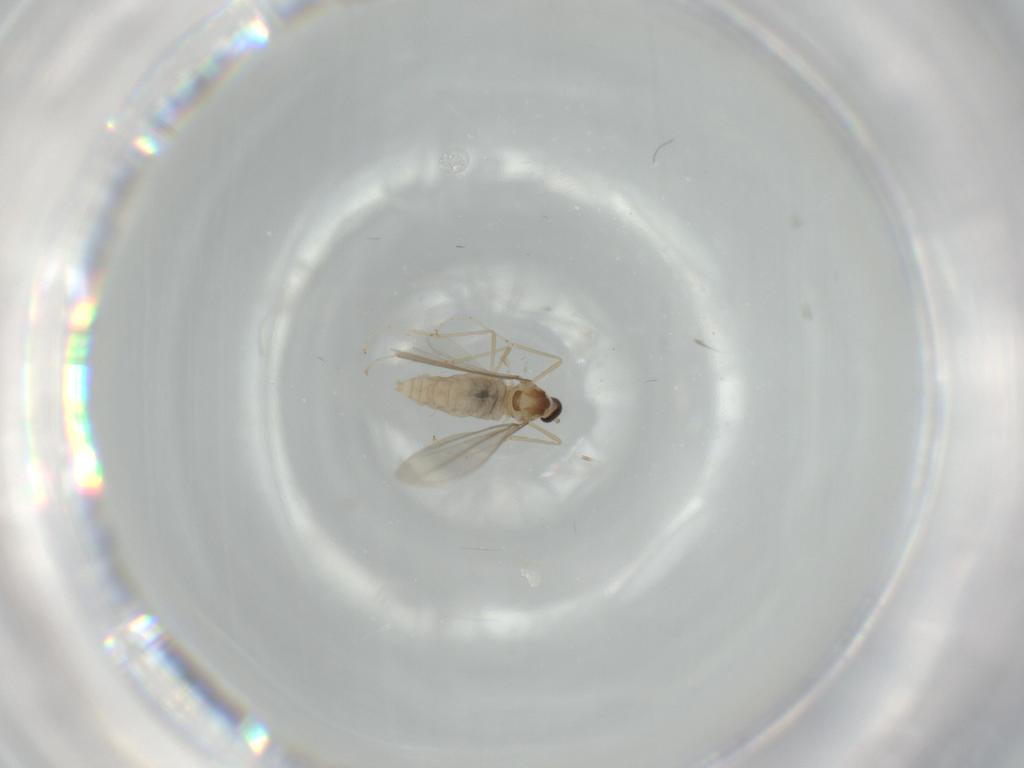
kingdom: Animalia
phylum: Arthropoda
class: Insecta
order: Diptera
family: Cecidomyiidae
